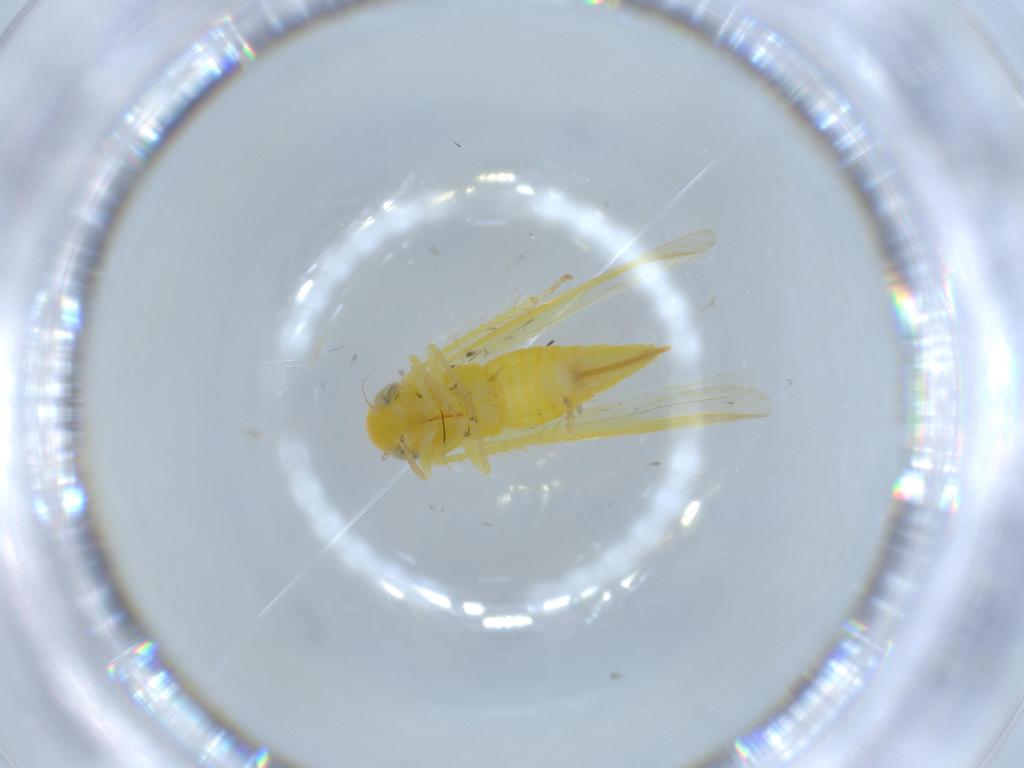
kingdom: Animalia
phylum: Arthropoda
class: Insecta
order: Hemiptera
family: Cicadellidae
